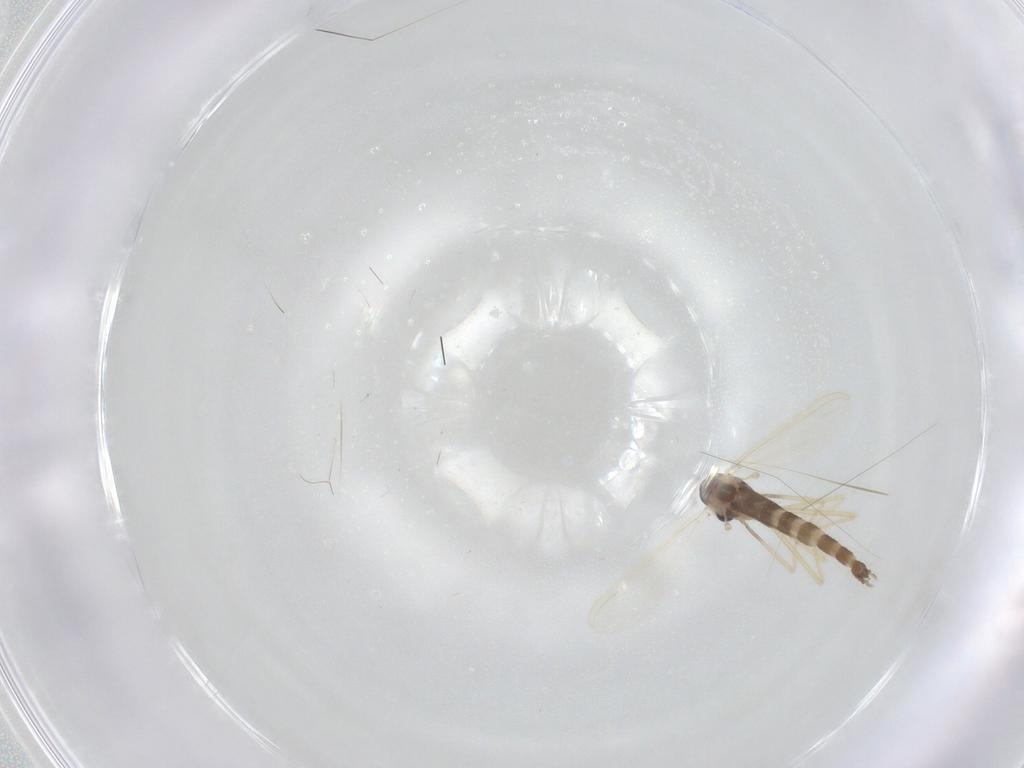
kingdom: Animalia
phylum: Arthropoda
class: Insecta
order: Diptera
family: Chironomidae
